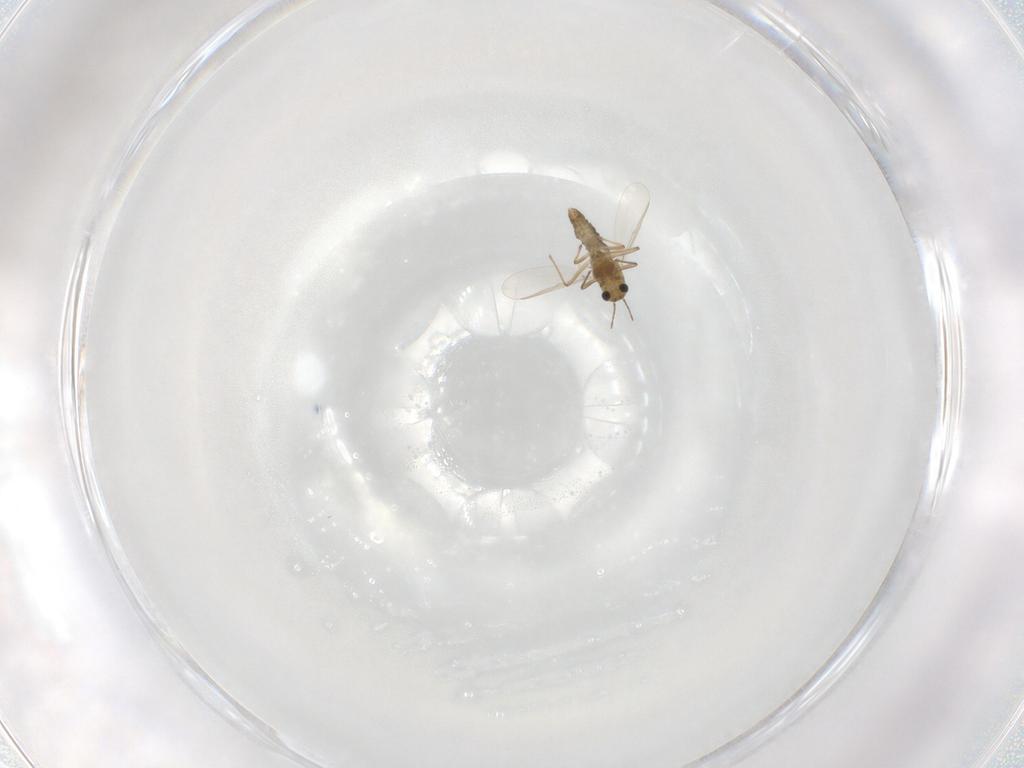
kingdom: Animalia
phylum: Arthropoda
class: Insecta
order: Diptera
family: Chironomidae
